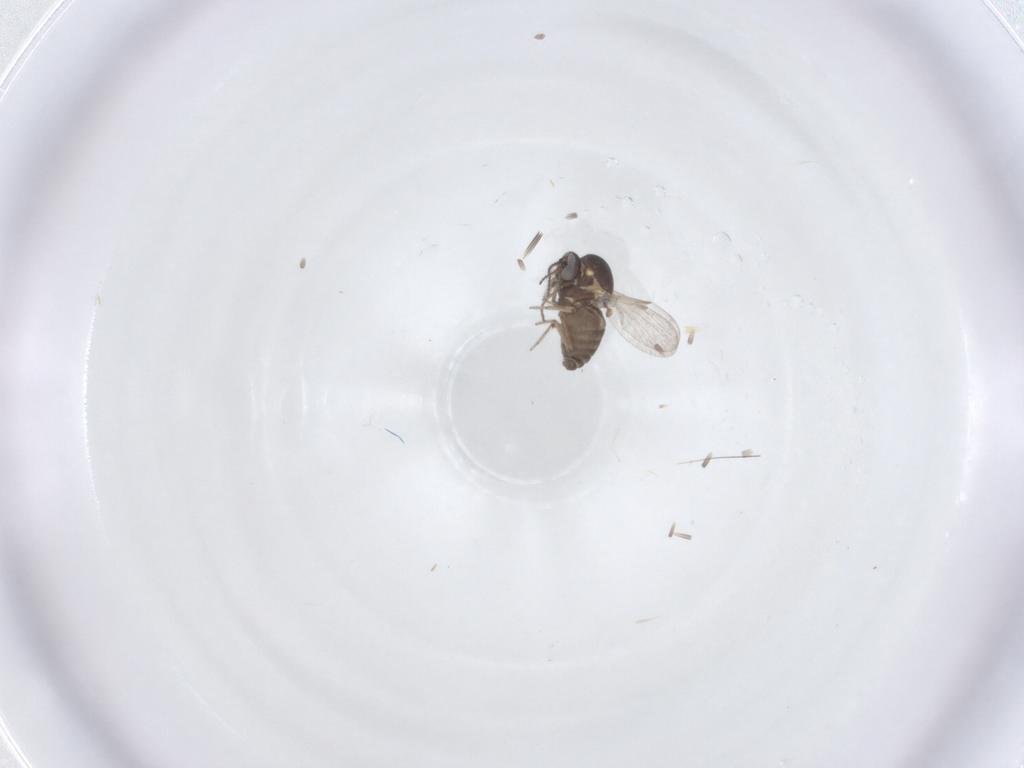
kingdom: Animalia
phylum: Arthropoda
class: Insecta
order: Diptera
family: Ceratopogonidae
